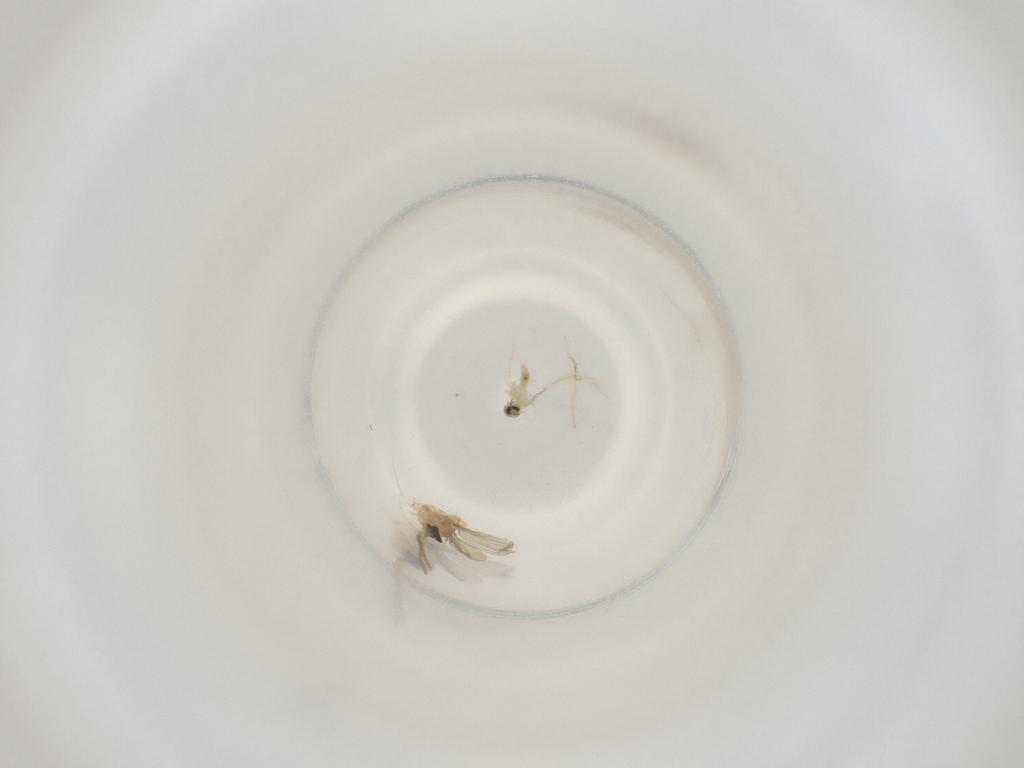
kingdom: Animalia
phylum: Arthropoda
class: Insecta
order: Diptera
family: Cecidomyiidae
